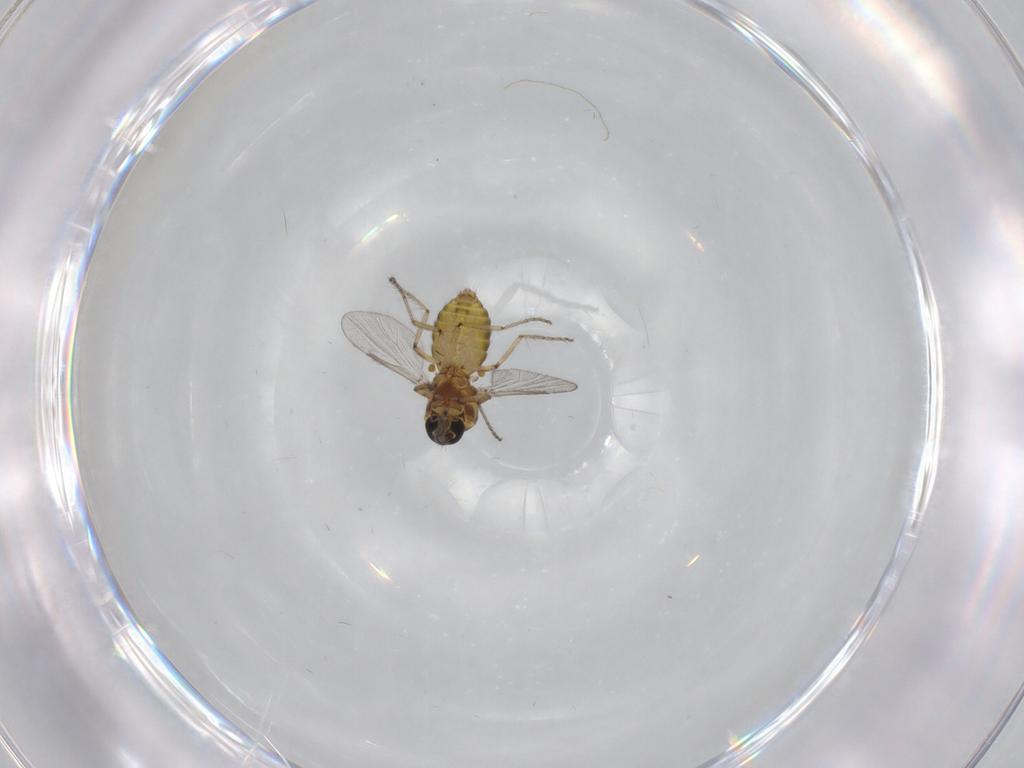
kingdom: Animalia
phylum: Arthropoda
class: Insecta
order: Diptera
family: Ceratopogonidae
